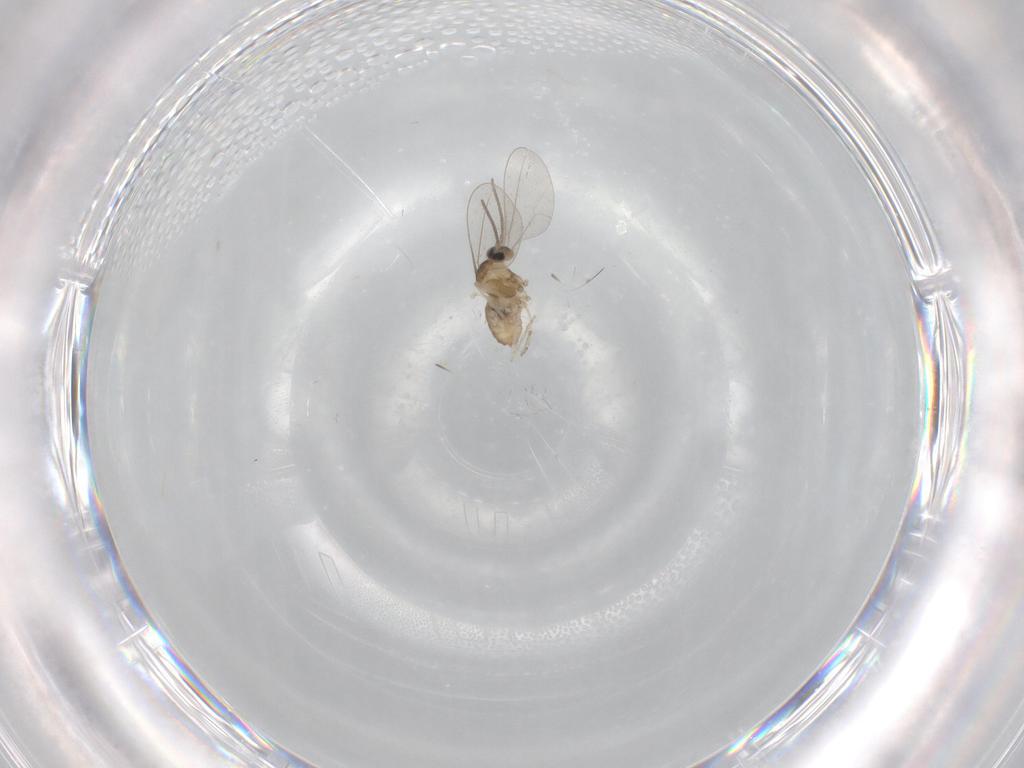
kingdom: Animalia
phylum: Arthropoda
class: Insecta
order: Diptera
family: Cecidomyiidae
